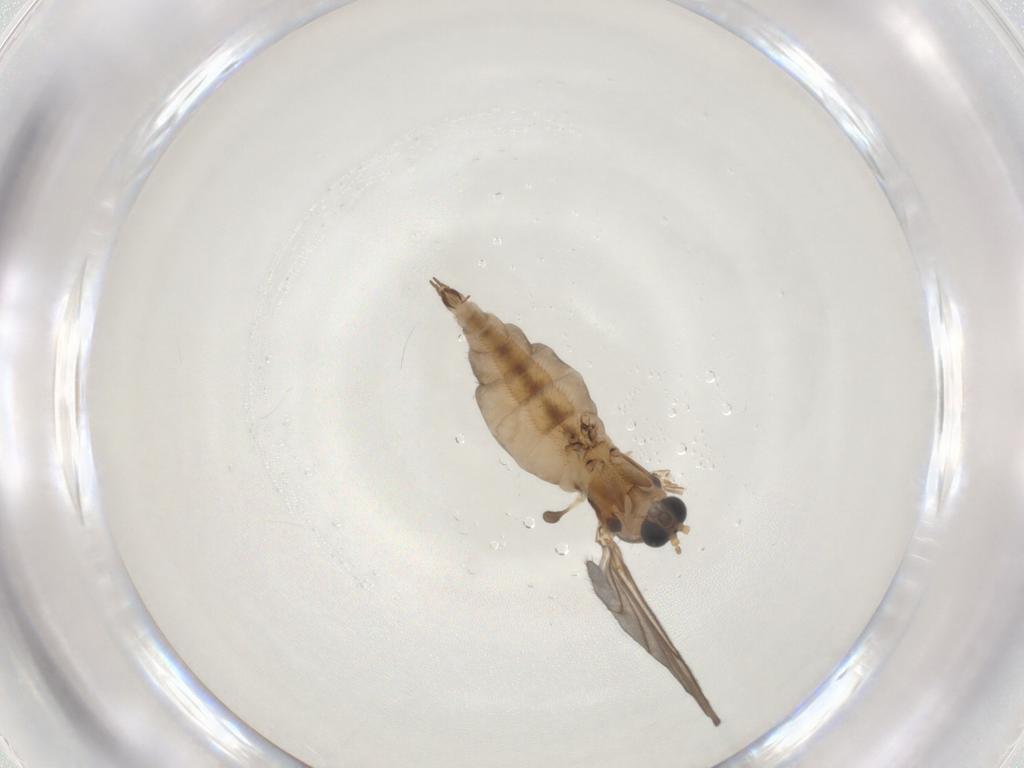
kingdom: Animalia
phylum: Arthropoda
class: Insecta
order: Diptera
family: Sciaridae
